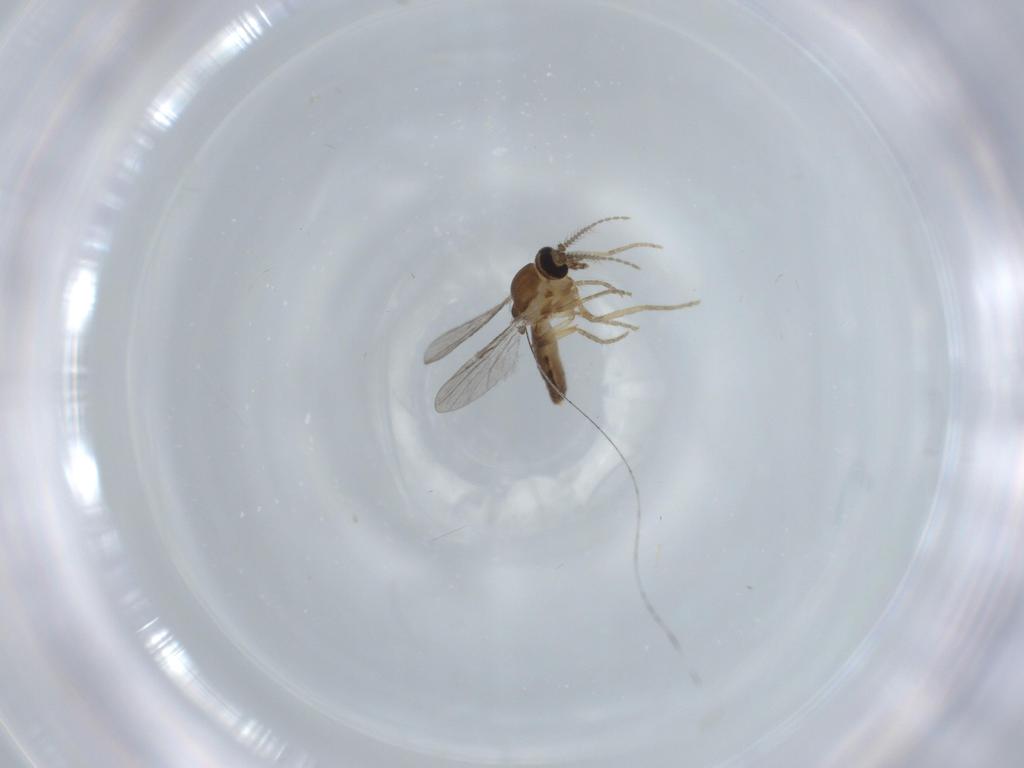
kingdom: Animalia
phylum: Arthropoda
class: Insecta
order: Diptera
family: Ceratopogonidae
